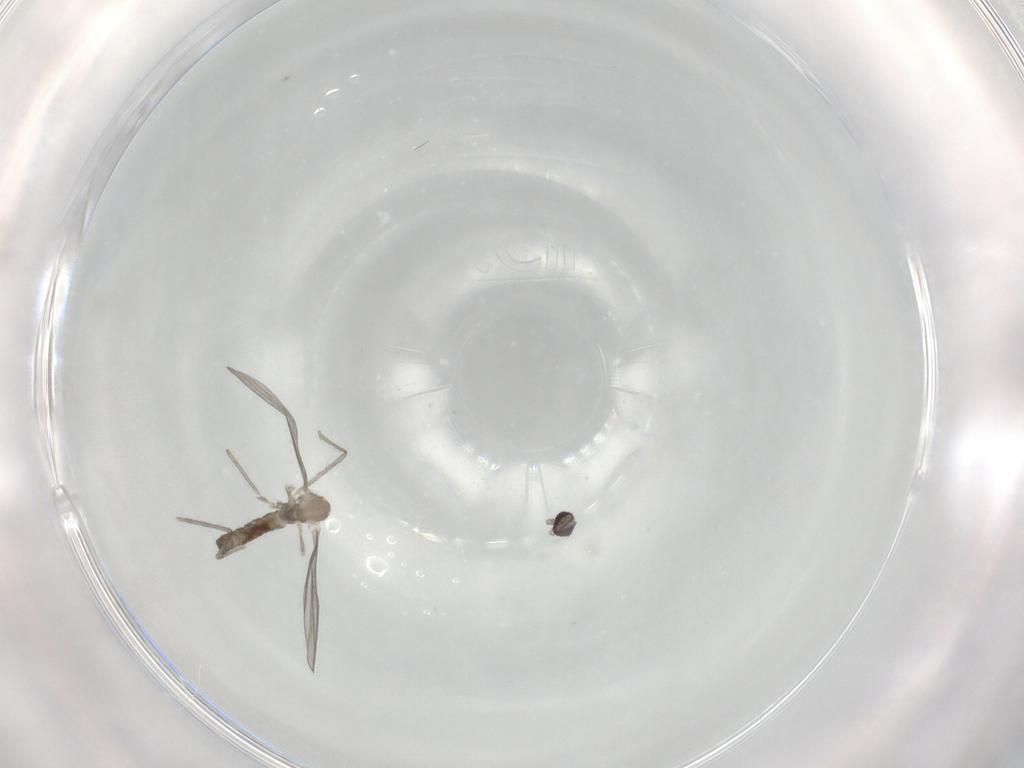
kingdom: Animalia
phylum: Arthropoda
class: Insecta
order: Diptera
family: Cecidomyiidae
